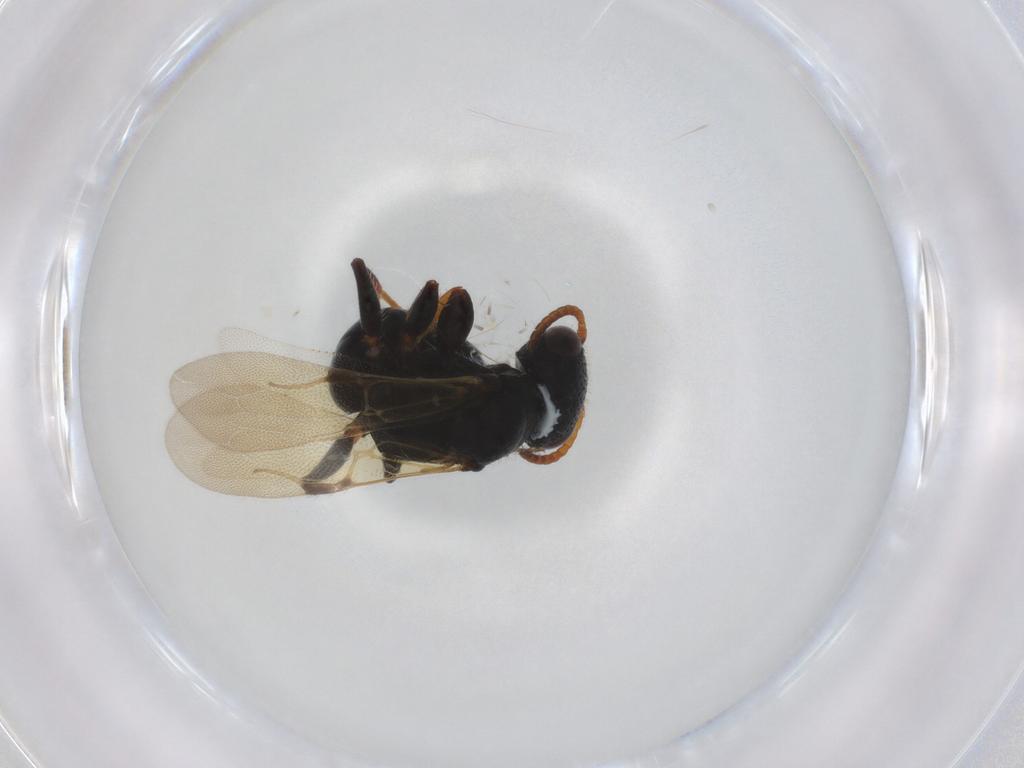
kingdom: Animalia
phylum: Arthropoda
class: Insecta
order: Hymenoptera
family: Bethylidae
